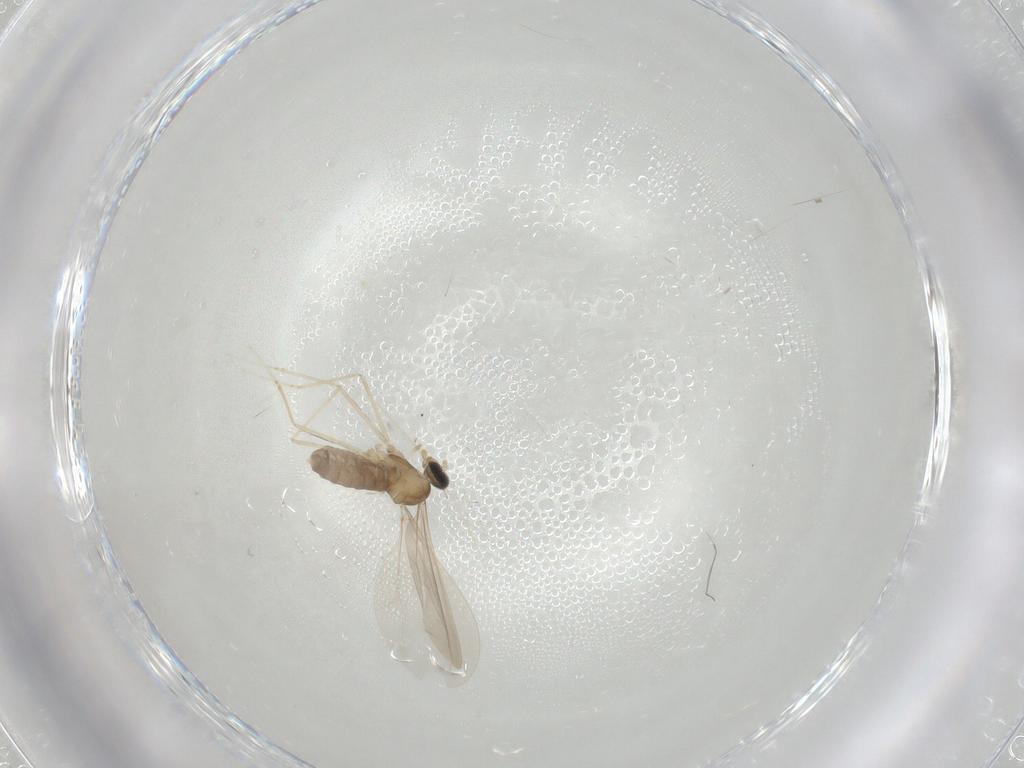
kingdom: Animalia
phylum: Arthropoda
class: Insecta
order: Diptera
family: Cecidomyiidae
